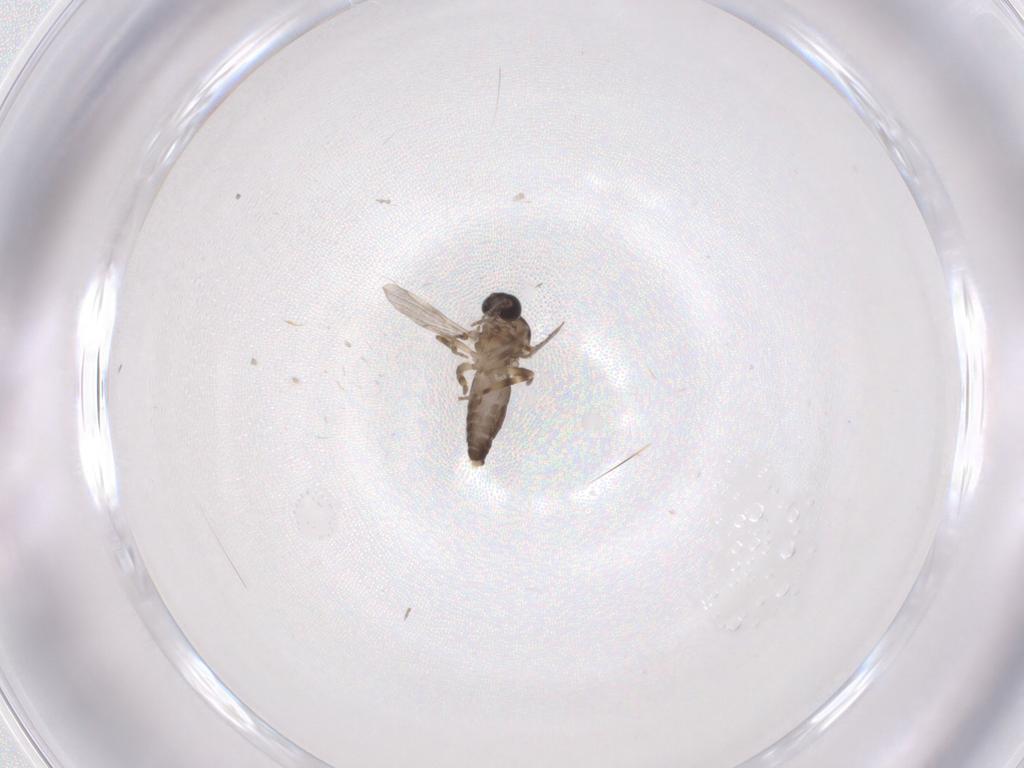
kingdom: Animalia
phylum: Arthropoda
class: Insecta
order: Diptera
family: Ceratopogonidae
